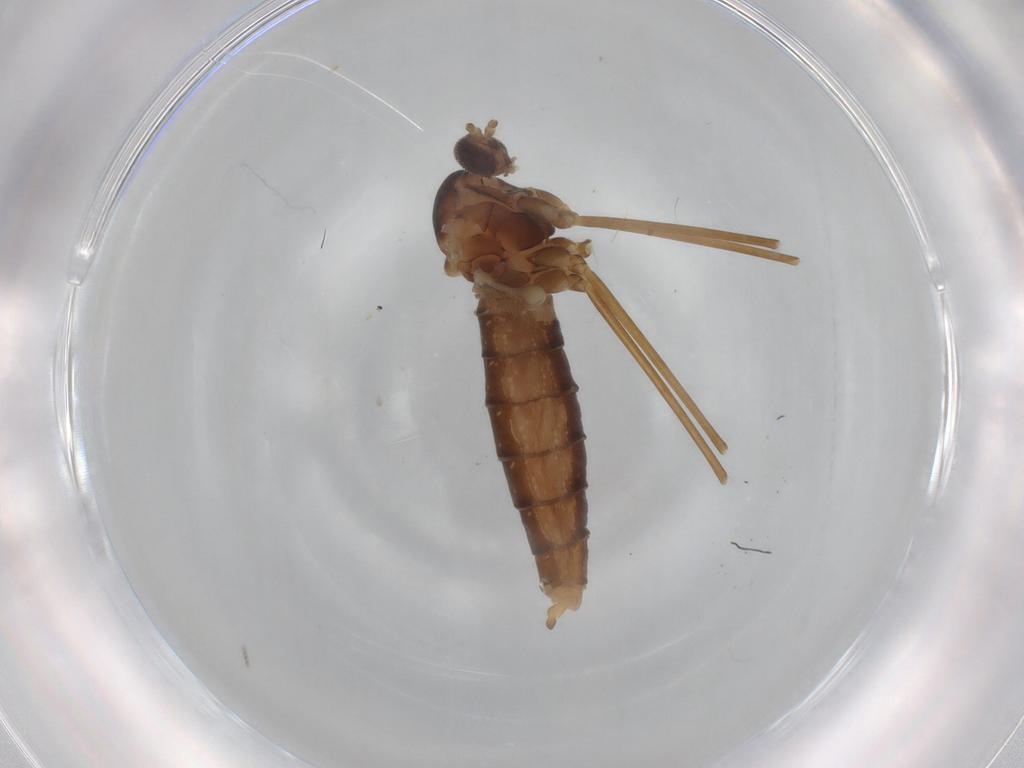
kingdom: Animalia
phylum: Arthropoda
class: Insecta
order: Diptera
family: Cecidomyiidae
